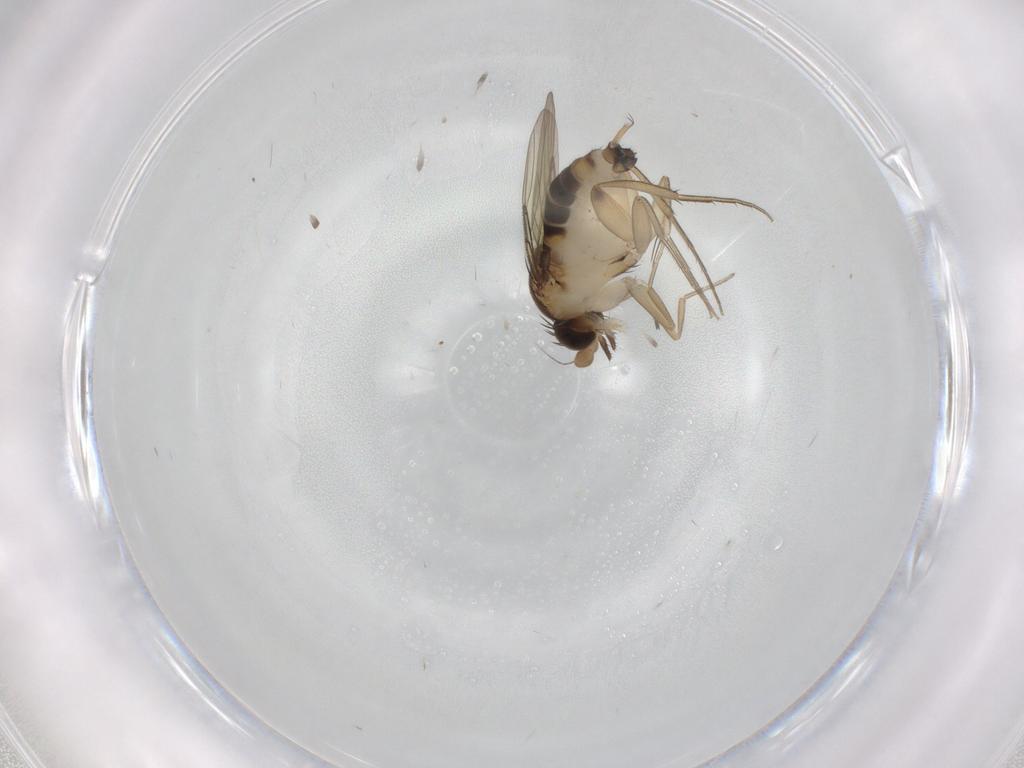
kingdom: Animalia
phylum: Arthropoda
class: Insecta
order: Diptera
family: Phoridae
